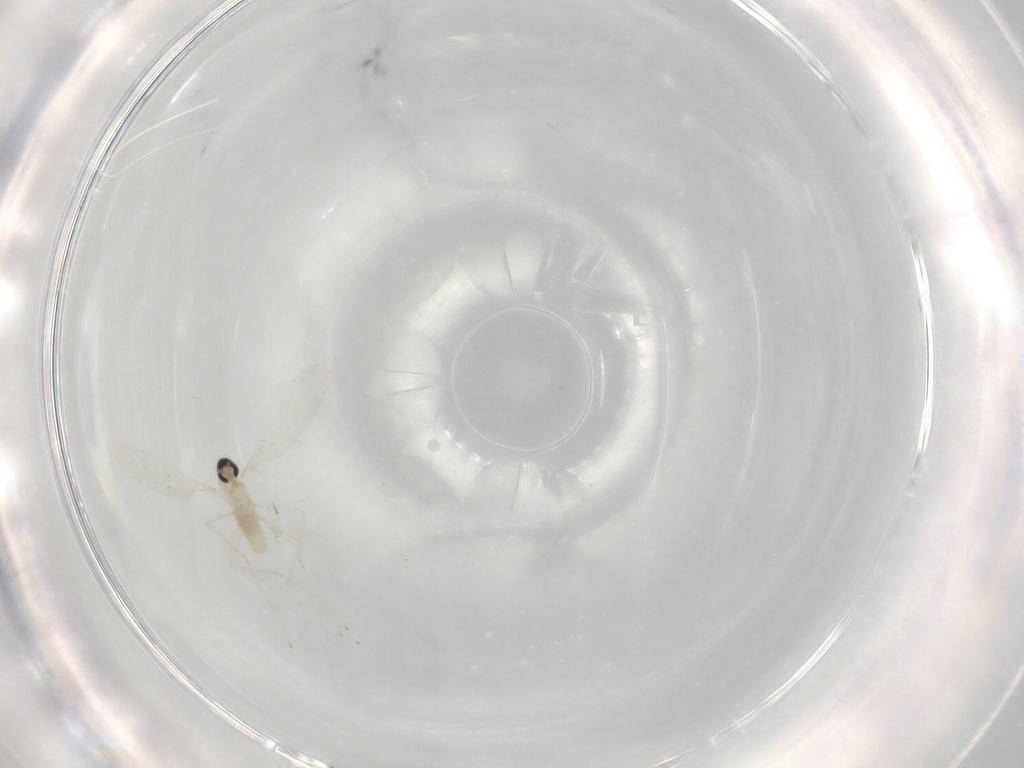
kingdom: Animalia
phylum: Arthropoda
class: Insecta
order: Diptera
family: Cecidomyiidae
